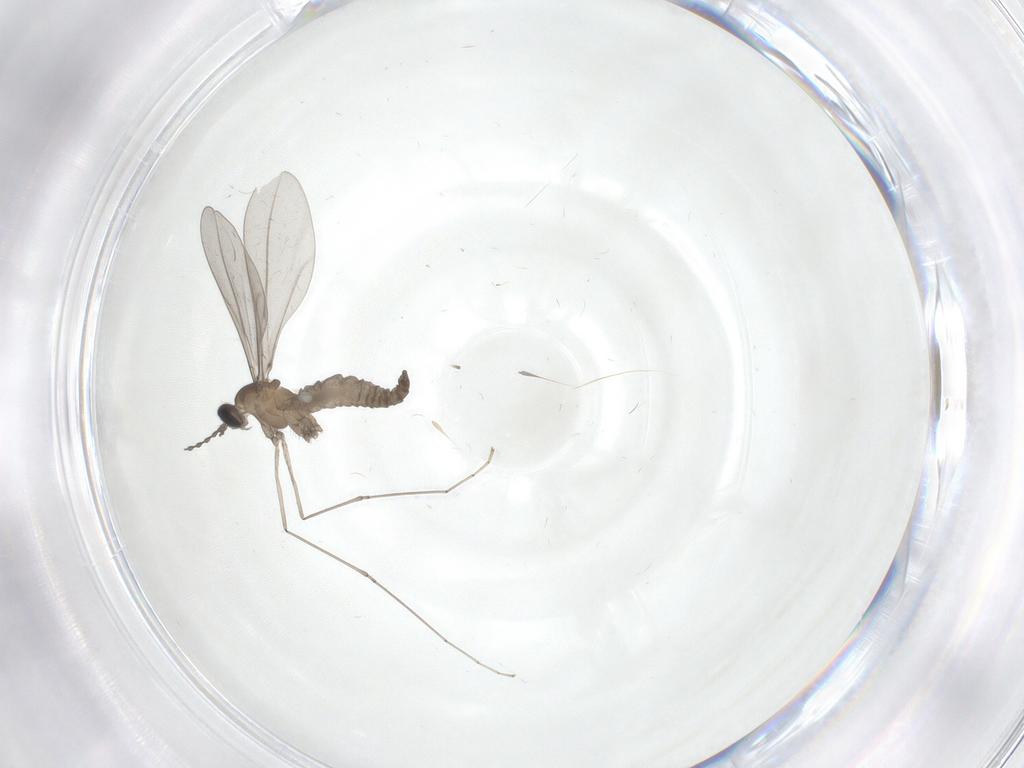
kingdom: Animalia
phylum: Arthropoda
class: Insecta
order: Diptera
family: Cecidomyiidae
